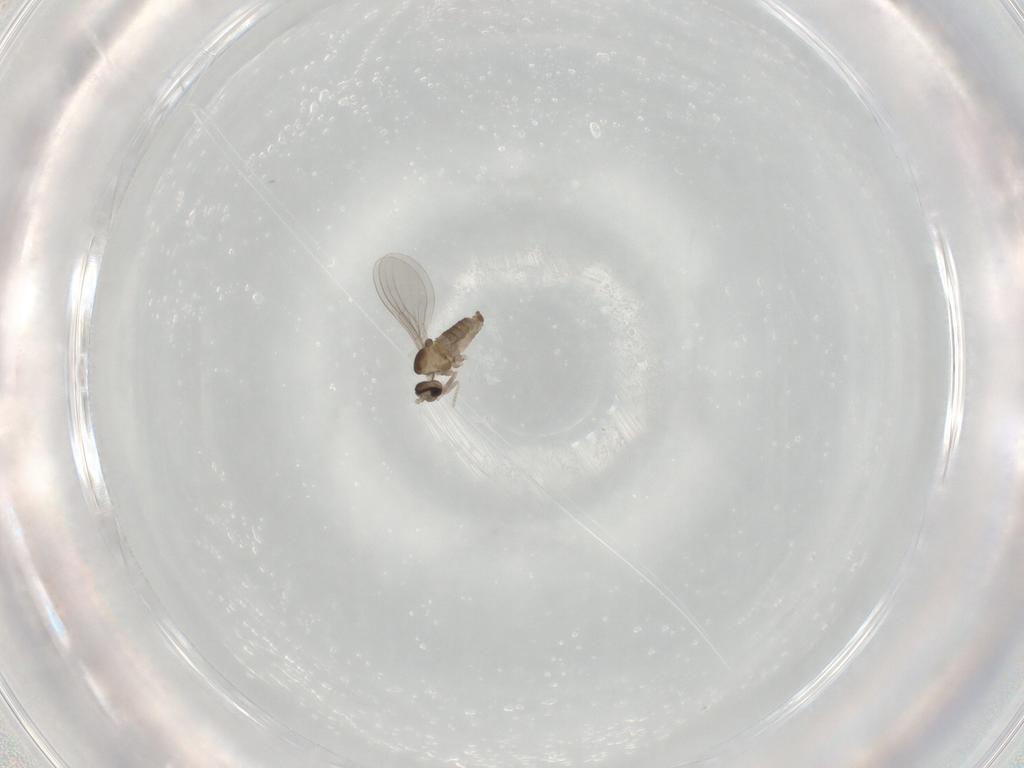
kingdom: Animalia
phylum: Arthropoda
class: Insecta
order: Diptera
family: Cecidomyiidae
